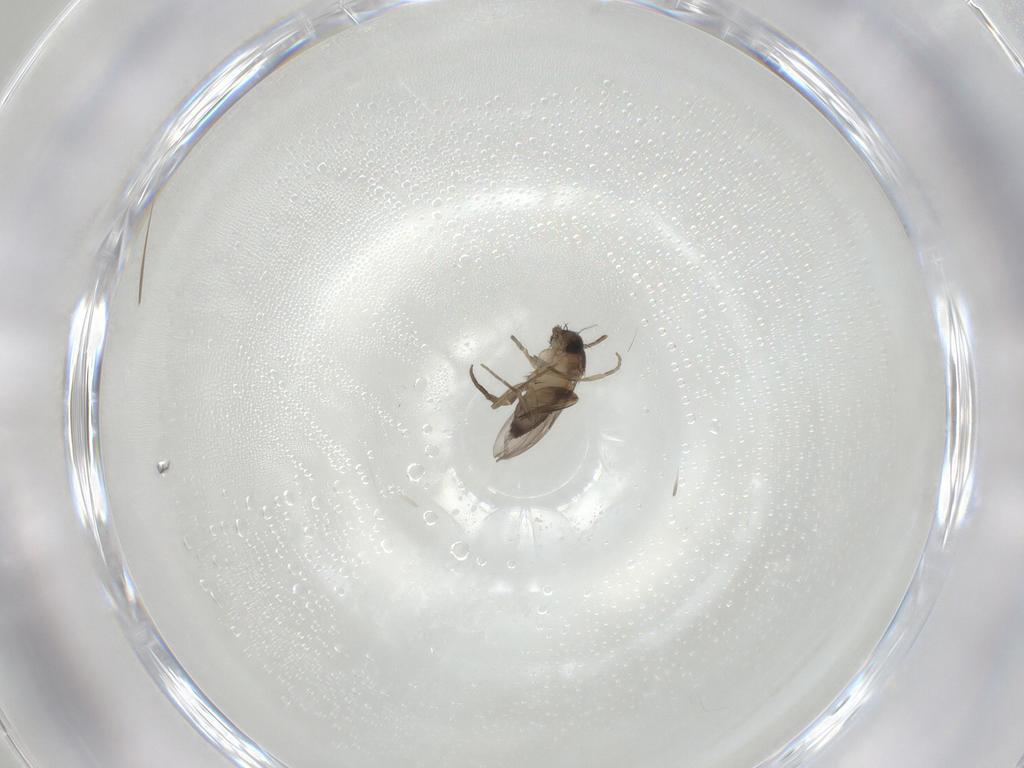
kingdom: Animalia
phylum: Arthropoda
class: Insecta
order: Diptera
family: Phoridae
